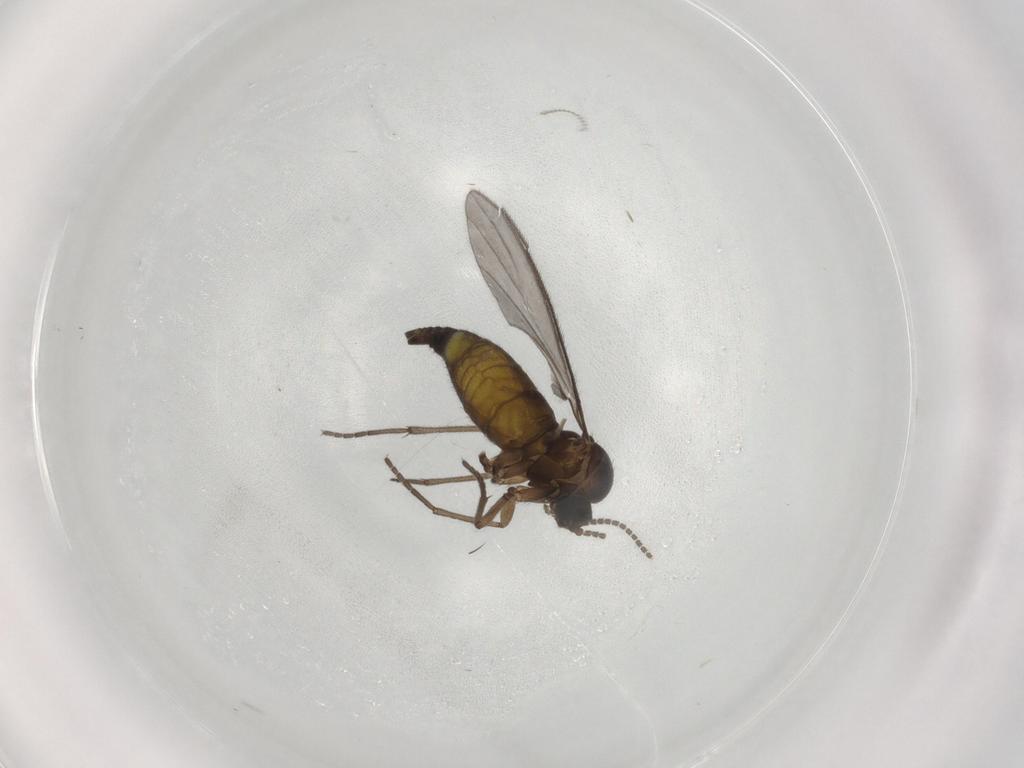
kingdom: Animalia
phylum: Arthropoda
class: Insecta
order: Diptera
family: Sciaridae
